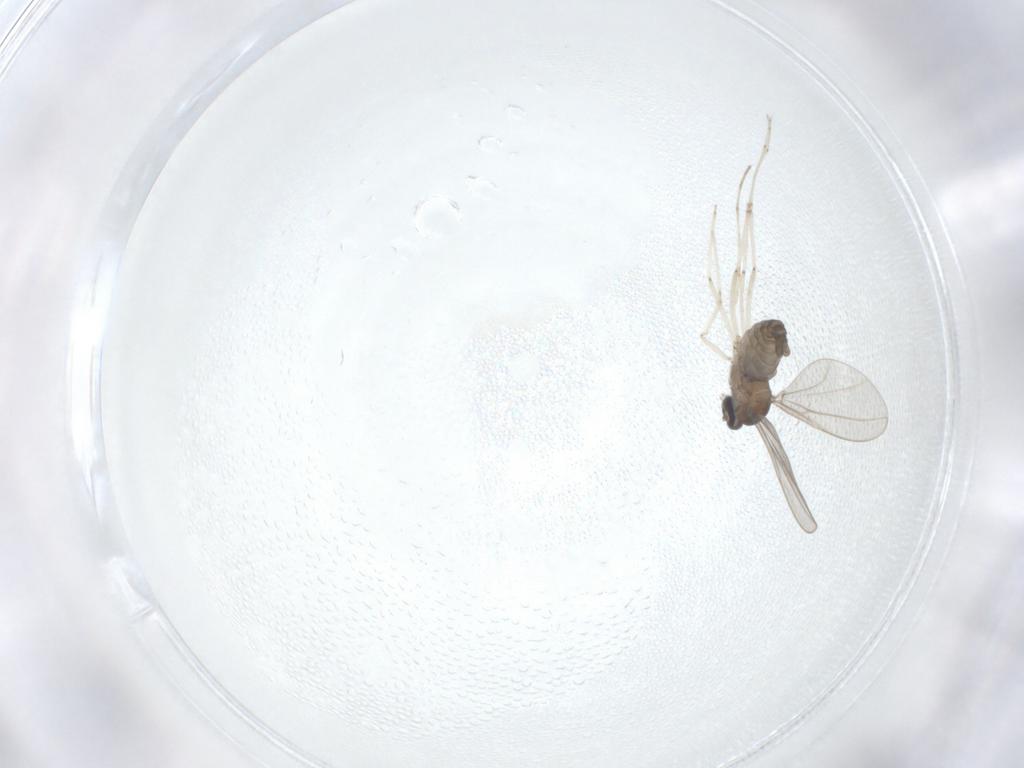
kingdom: Animalia
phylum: Arthropoda
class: Insecta
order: Diptera
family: Cecidomyiidae
